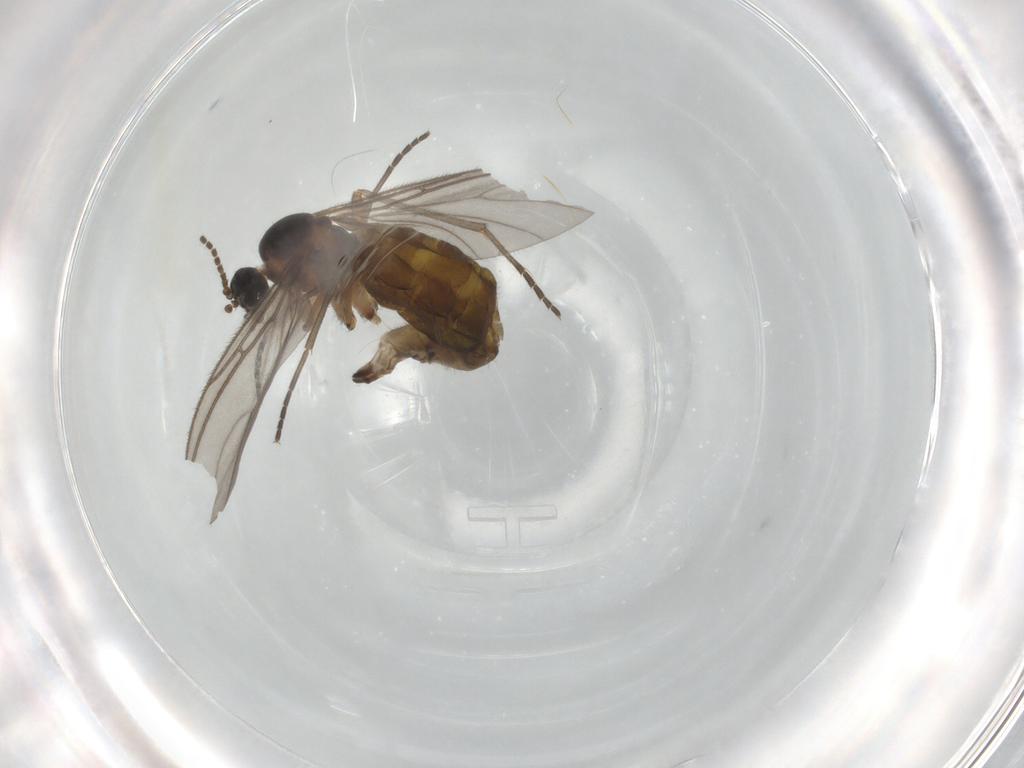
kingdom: Animalia
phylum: Arthropoda
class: Insecta
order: Diptera
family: Sciaridae
